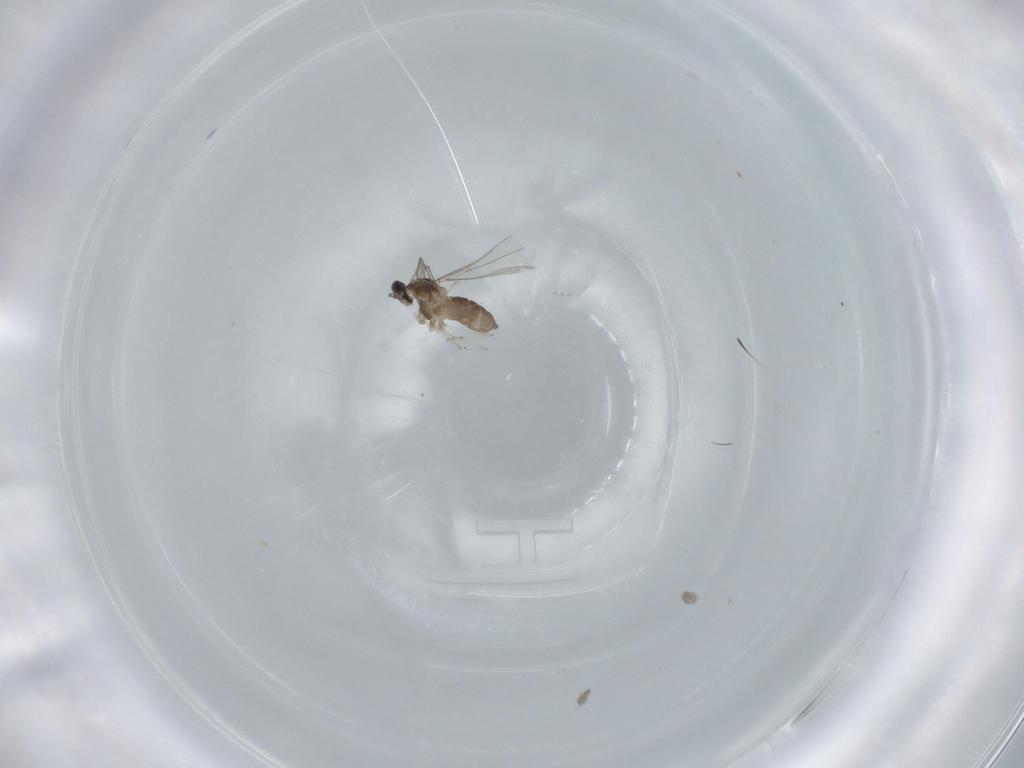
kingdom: Animalia
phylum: Arthropoda
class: Insecta
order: Diptera
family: Cecidomyiidae
